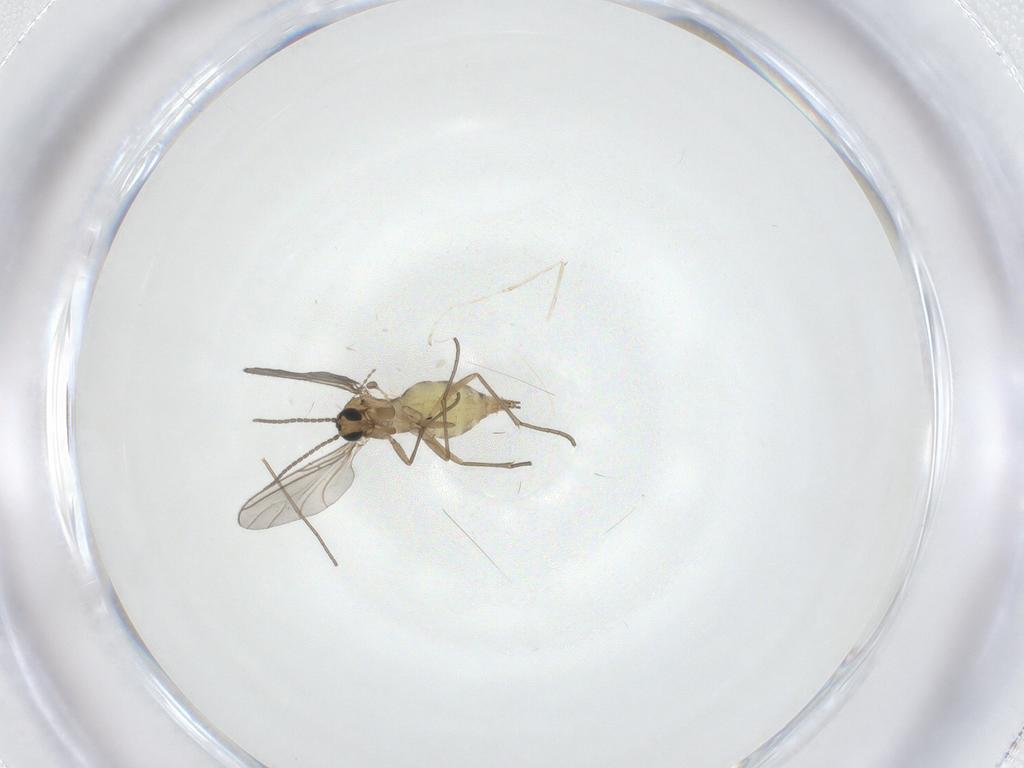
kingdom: Animalia
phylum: Arthropoda
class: Insecta
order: Diptera
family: Sciaridae
